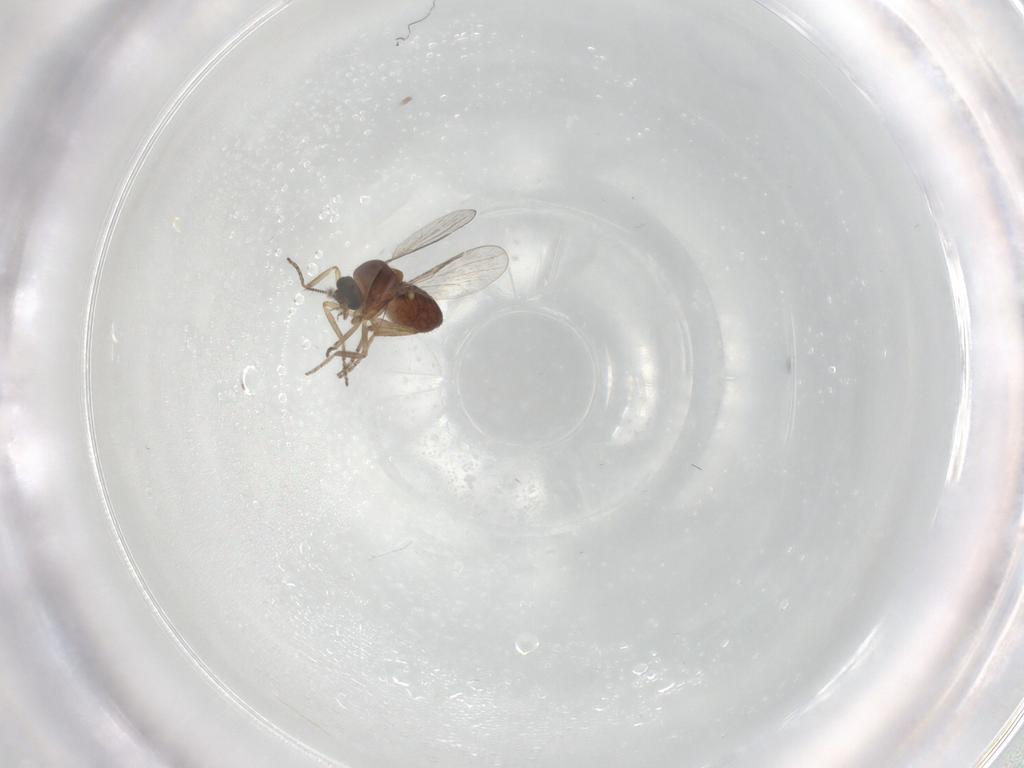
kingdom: Animalia
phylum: Arthropoda
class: Insecta
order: Diptera
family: Ceratopogonidae
